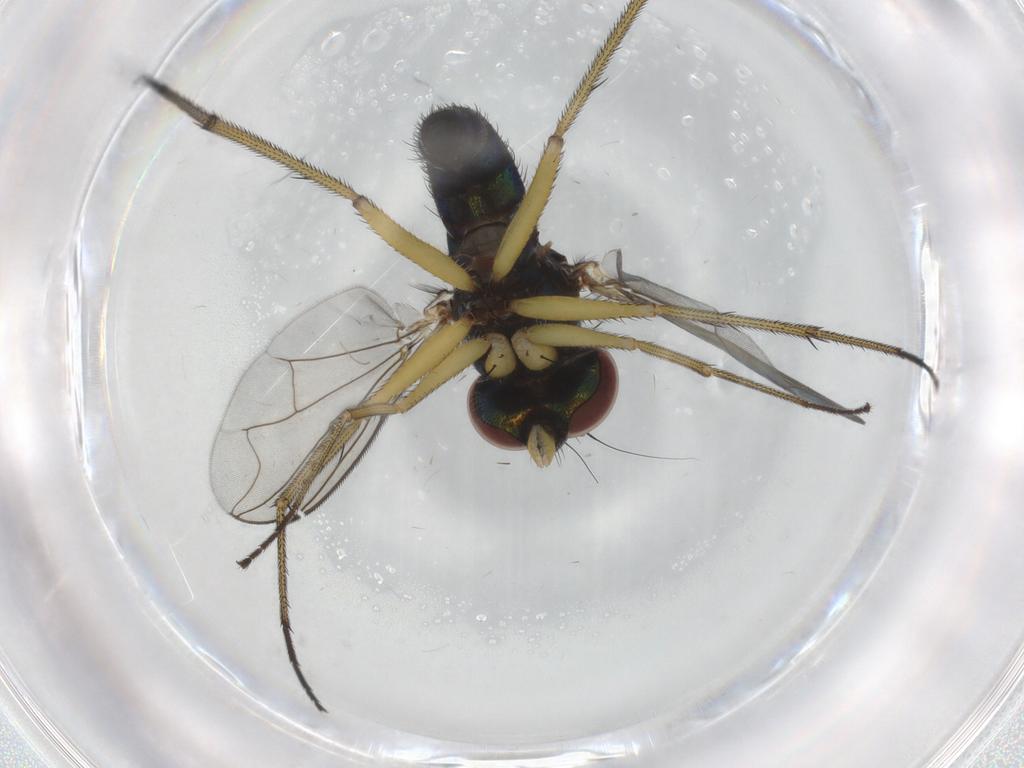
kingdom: Animalia
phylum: Arthropoda
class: Insecta
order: Diptera
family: Dolichopodidae
